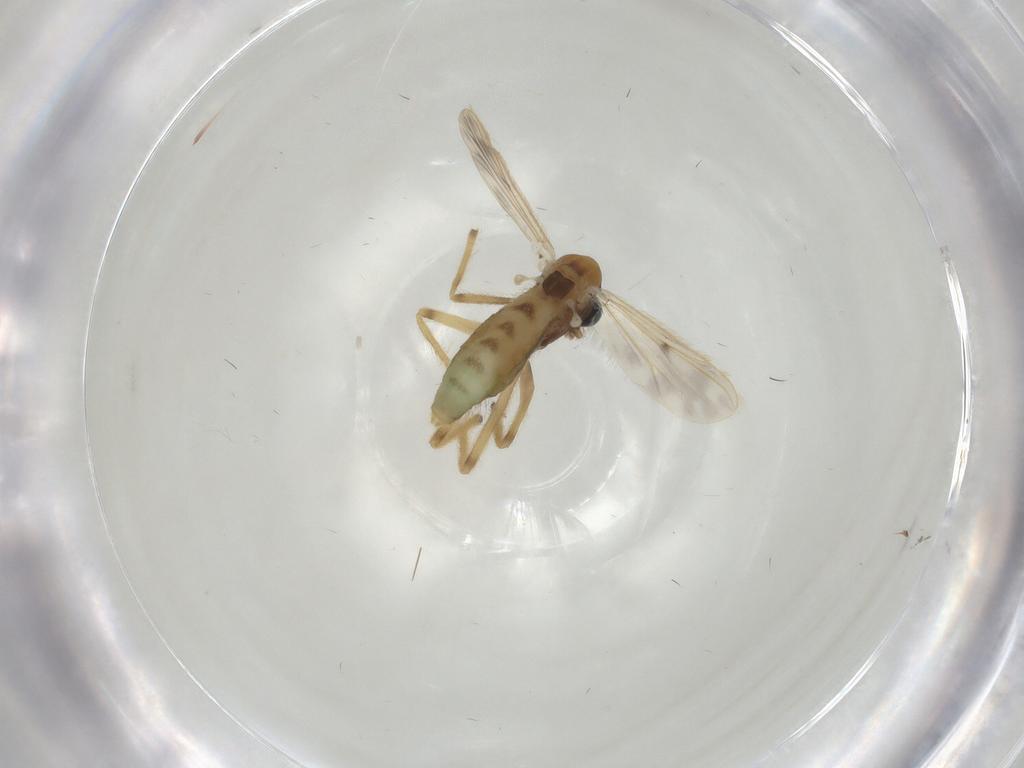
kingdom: Animalia
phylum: Arthropoda
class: Insecta
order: Diptera
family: Chironomidae
